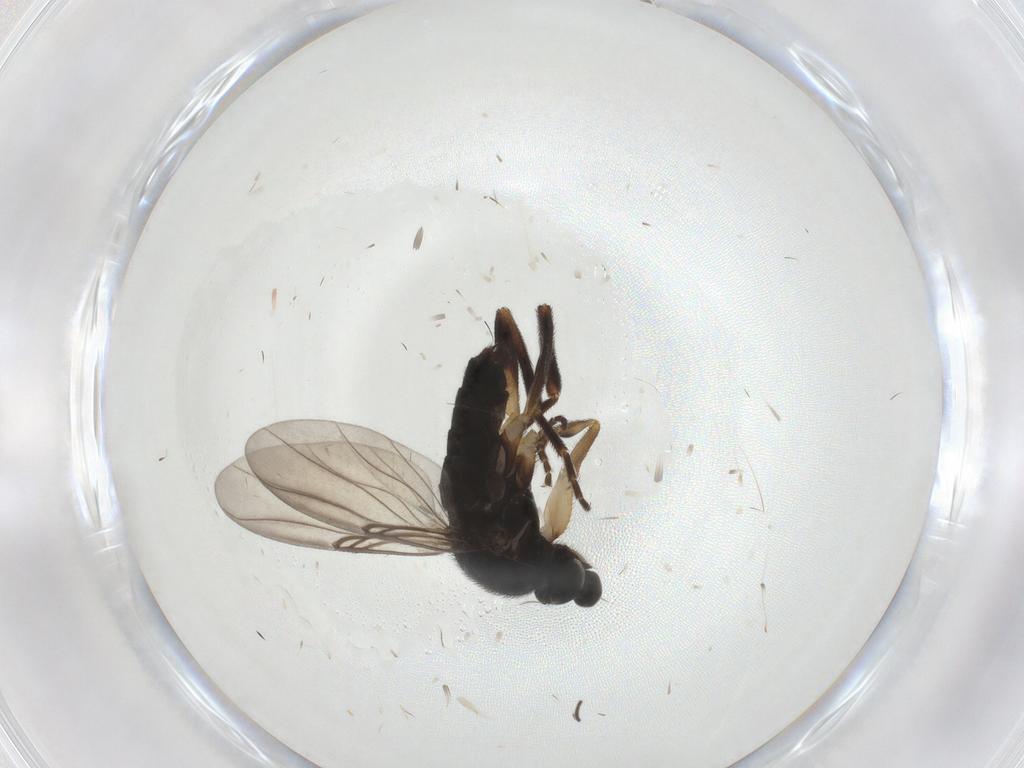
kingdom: Animalia
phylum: Arthropoda
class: Insecta
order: Diptera
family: Phoridae
